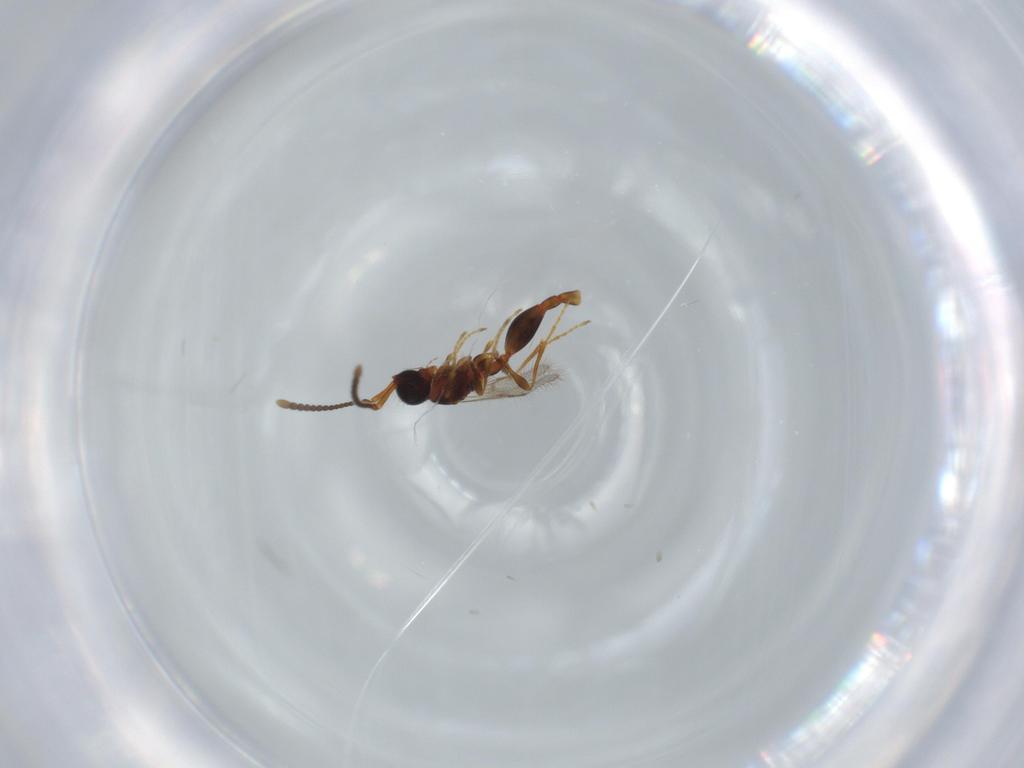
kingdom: Animalia
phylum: Arthropoda
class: Insecta
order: Hymenoptera
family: Diapriidae
